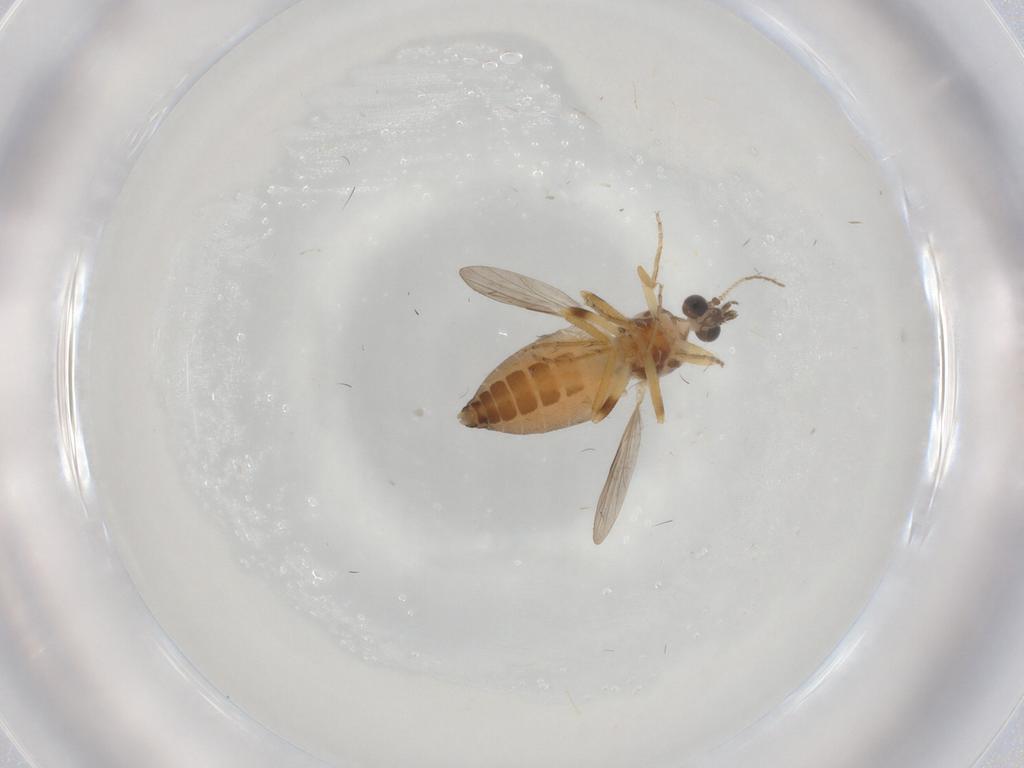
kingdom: Animalia
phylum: Arthropoda
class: Insecta
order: Diptera
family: Ceratopogonidae
